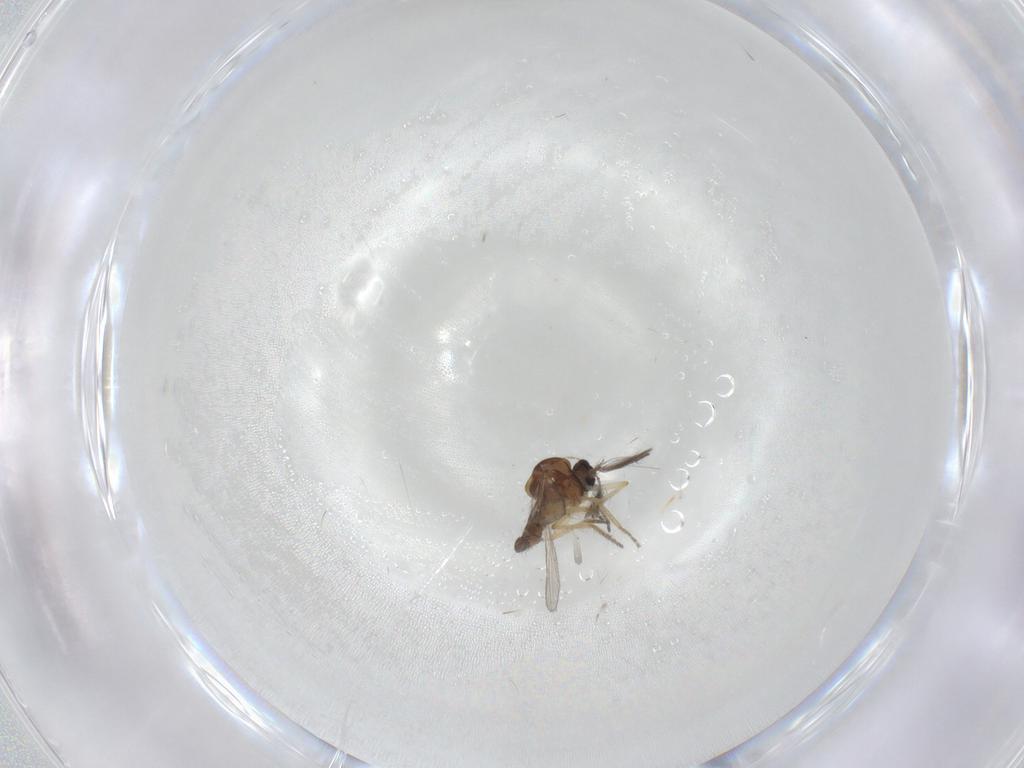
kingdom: Animalia
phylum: Arthropoda
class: Insecta
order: Diptera
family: Ceratopogonidae
